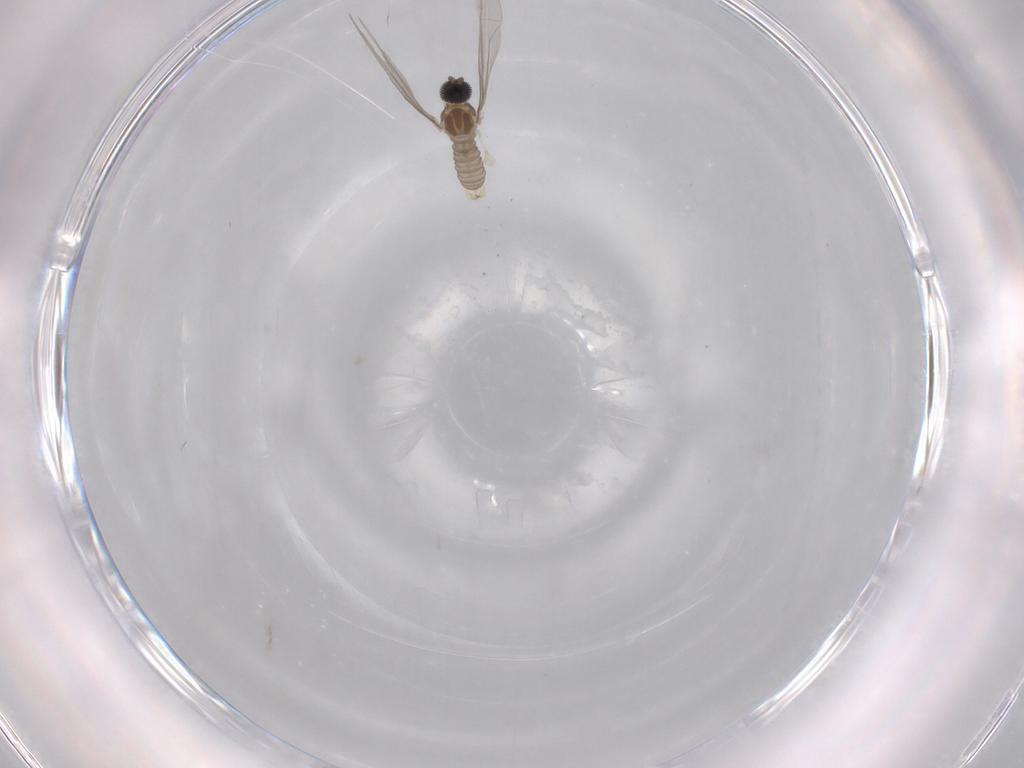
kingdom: Animalia
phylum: Arthropoda
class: Insecta
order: Diptera
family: Cecidomyiidae
